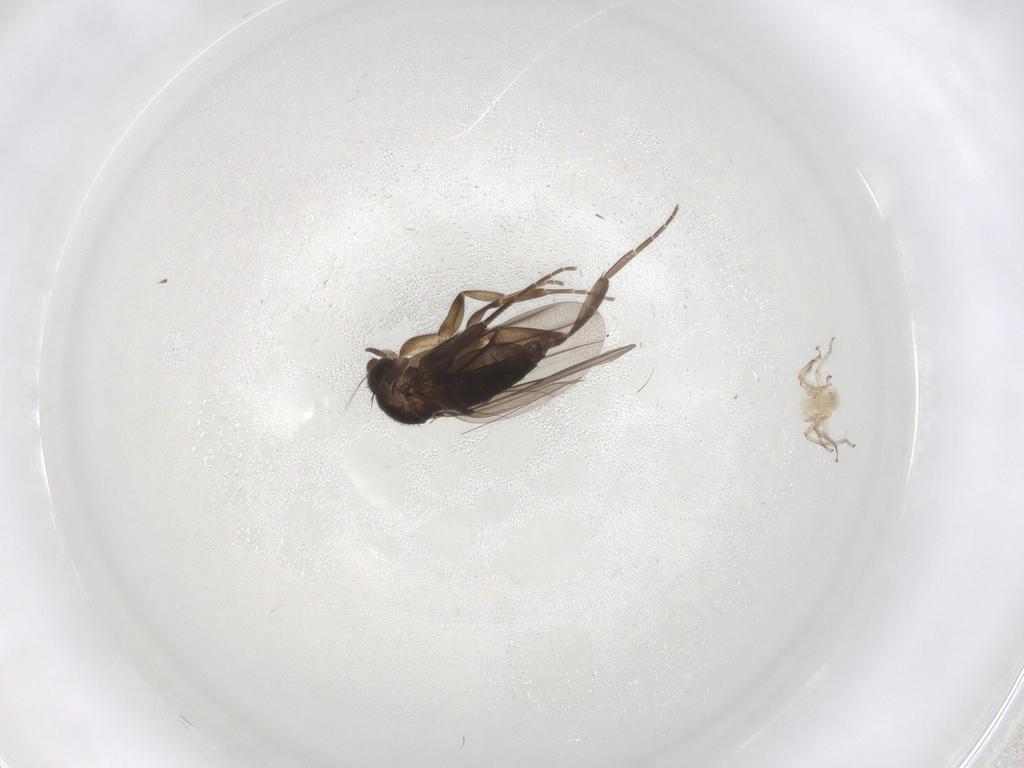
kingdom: Animalia
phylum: Arthropoda
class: Insecta
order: Diptera
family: Phoridae
